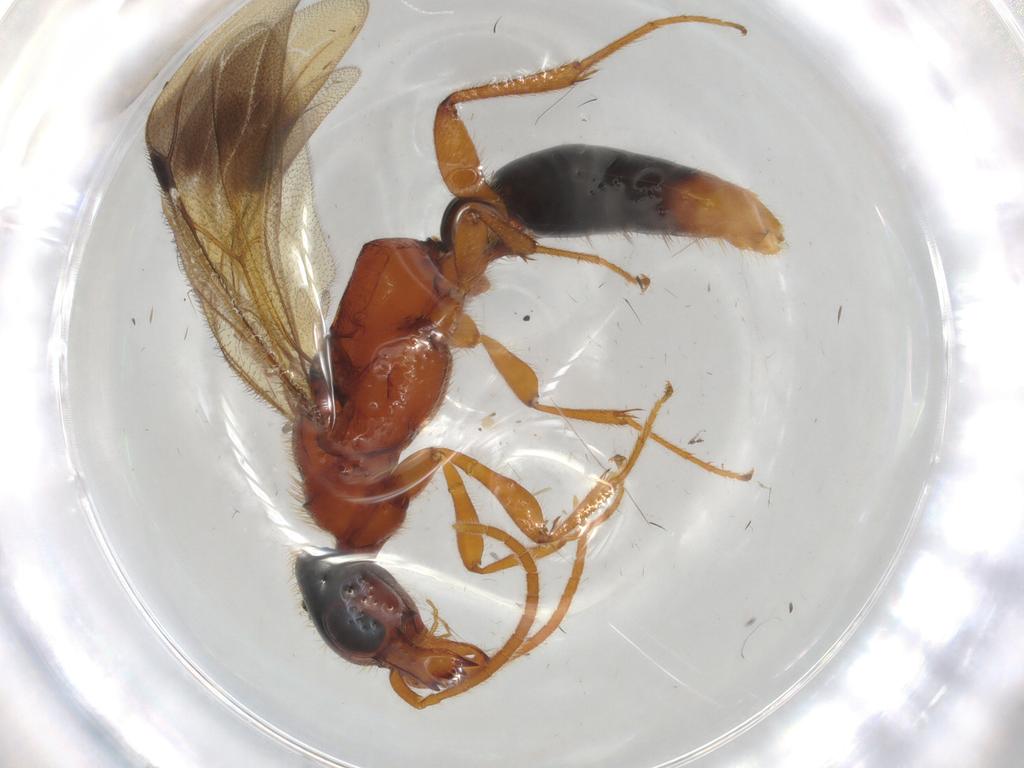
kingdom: Animalia
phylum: Arthropoda
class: Insecta
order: Hymenoptera
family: Bethylidae
